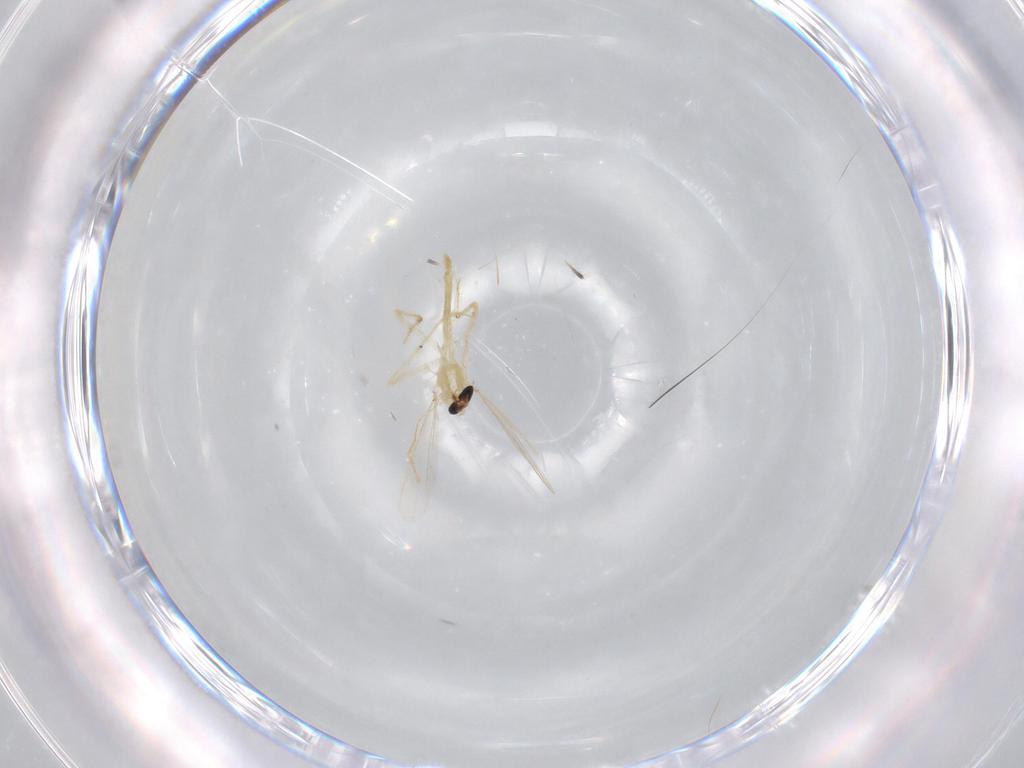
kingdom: Animalia
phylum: Arthropoda
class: Insecta
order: Diptera
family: Chironomidae
